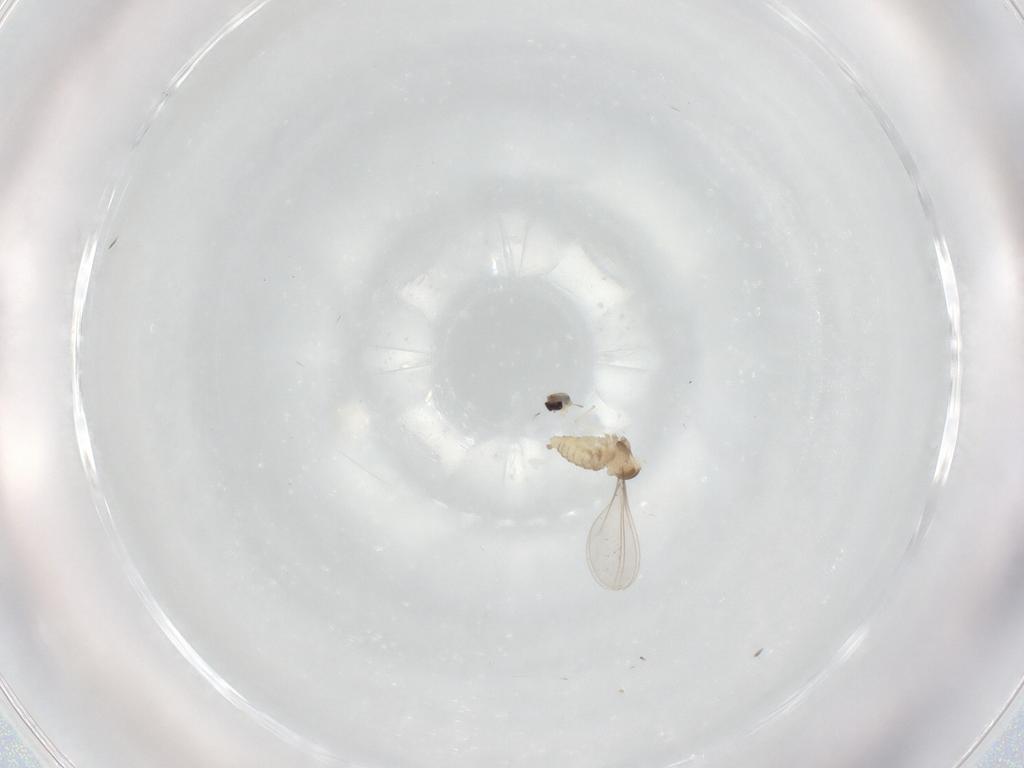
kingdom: Animalia
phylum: Arthropoda
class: Insecta
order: Diptera
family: Cecidomyiidae
